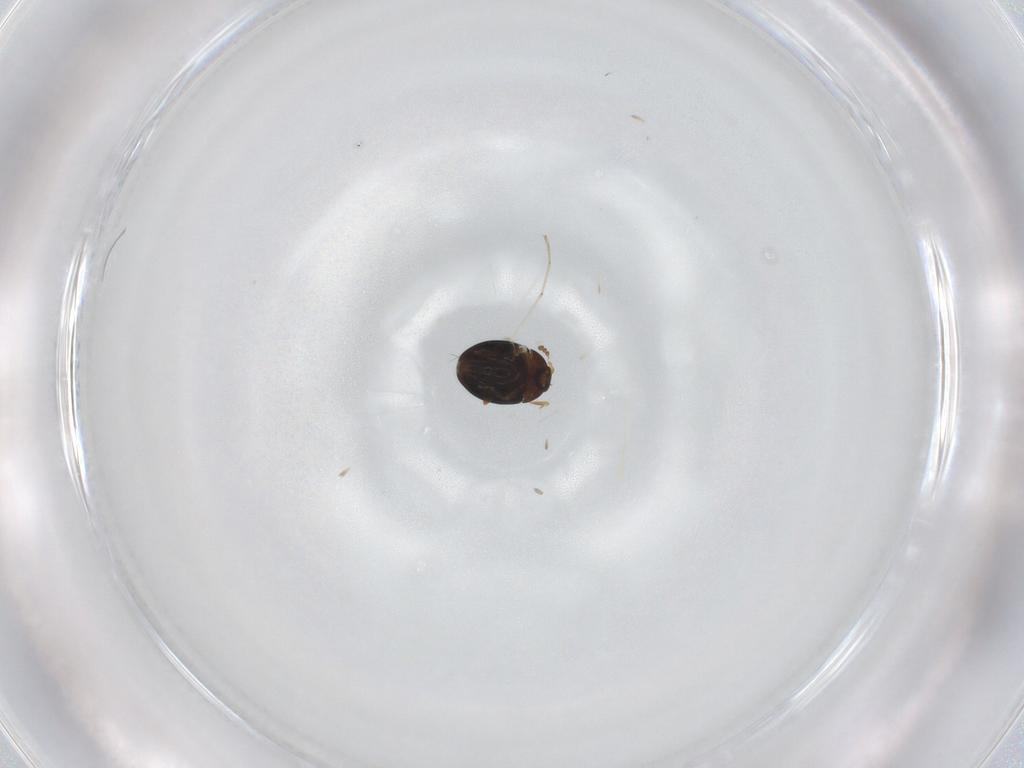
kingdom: Animalia
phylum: Arthropoda
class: Insecta
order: Coleoptera
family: Corylophidae
